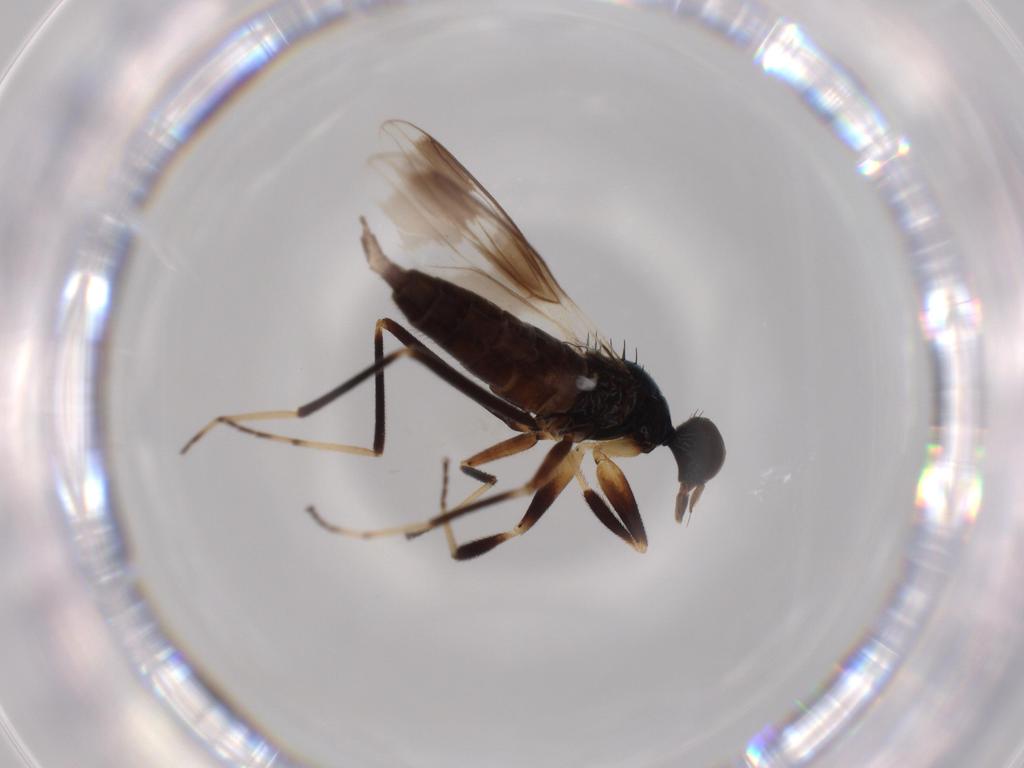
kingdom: Animalia
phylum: Arthropoda
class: Insecta
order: Diptera
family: Hybotidae
